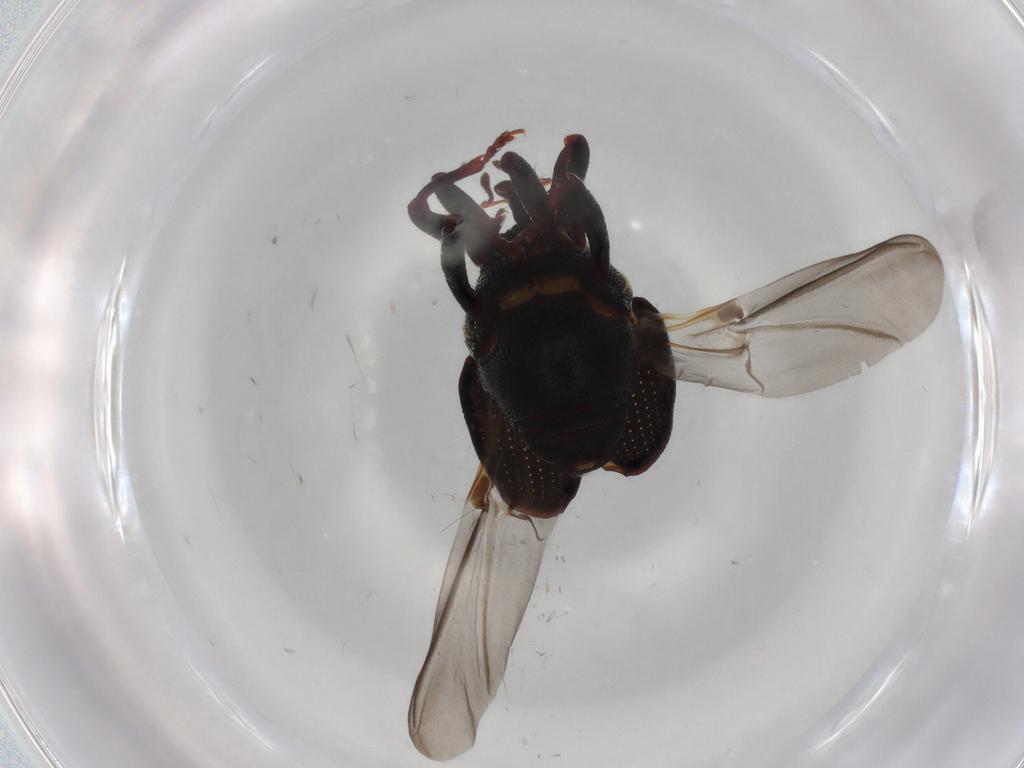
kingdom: Animalia
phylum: Arthropoda
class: Insecta
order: Coleoptera
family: Curculionidae
